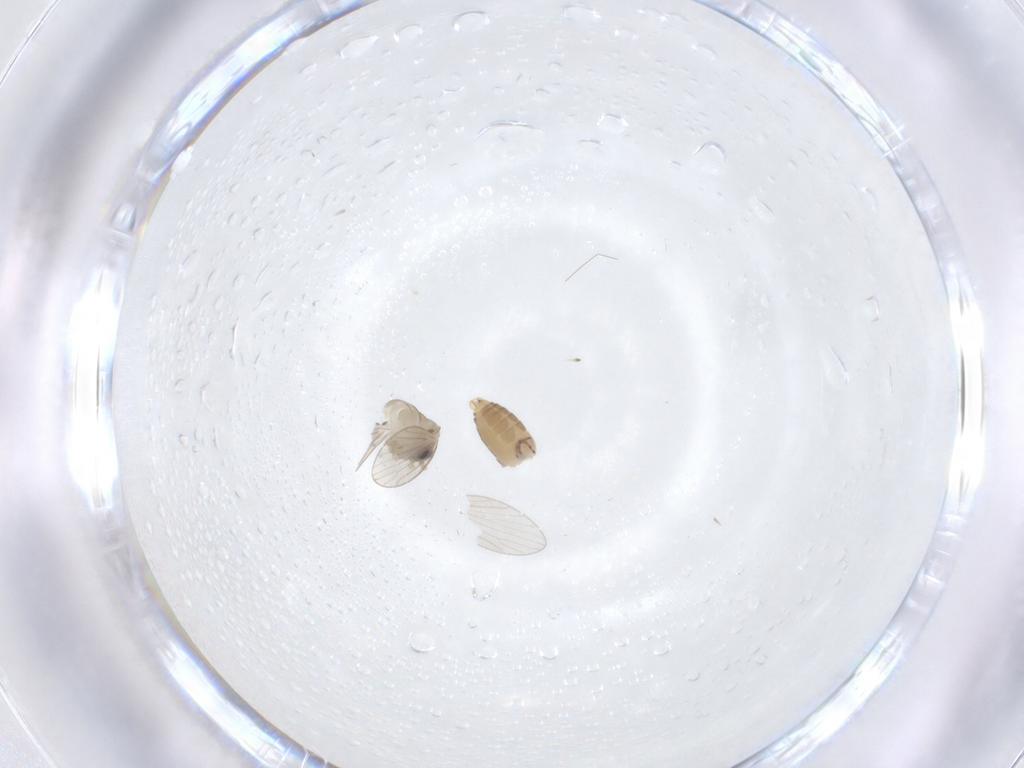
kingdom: Animalia
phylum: Arthropoda
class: Insecta
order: Diptera
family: Psychodidae
